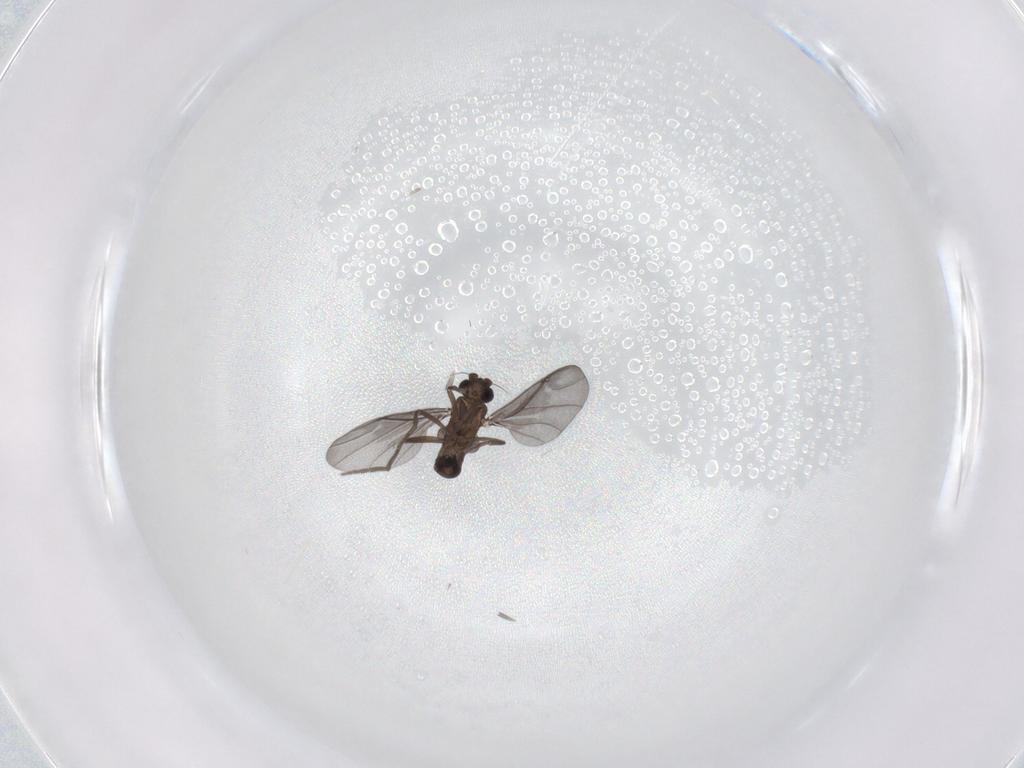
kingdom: Animalia
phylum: Arthropoda
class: Insecta
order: Diptera
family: Phoridae
